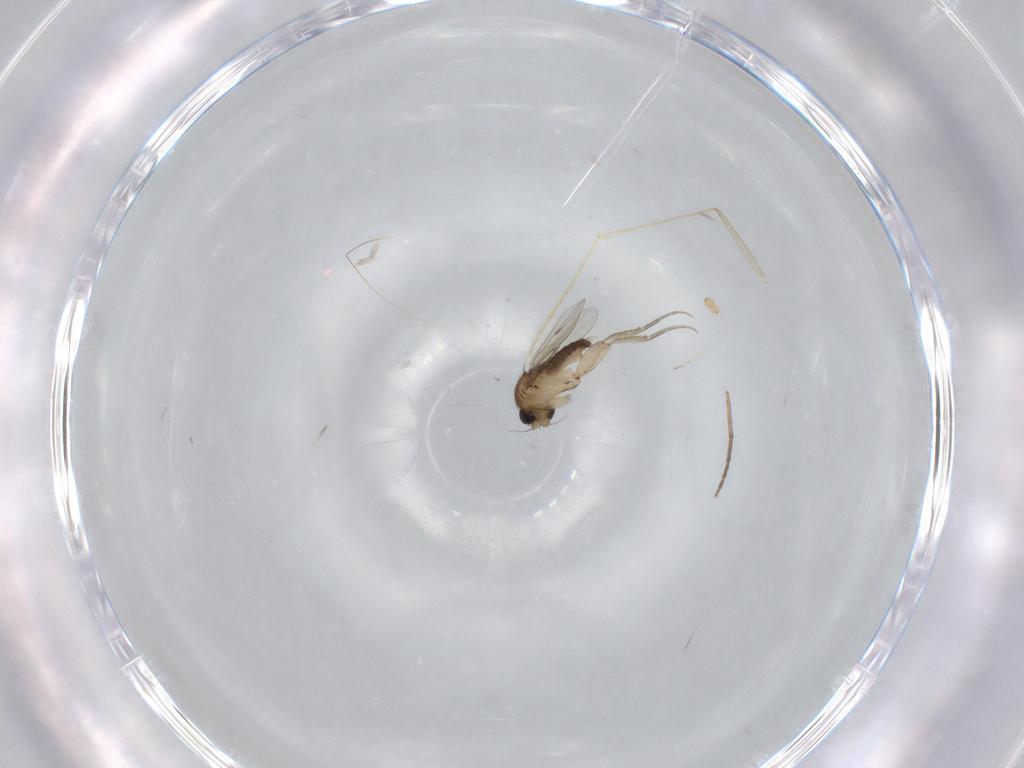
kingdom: Animalia
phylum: Arthropoda
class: Insecta
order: Diptera
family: Phoridae
